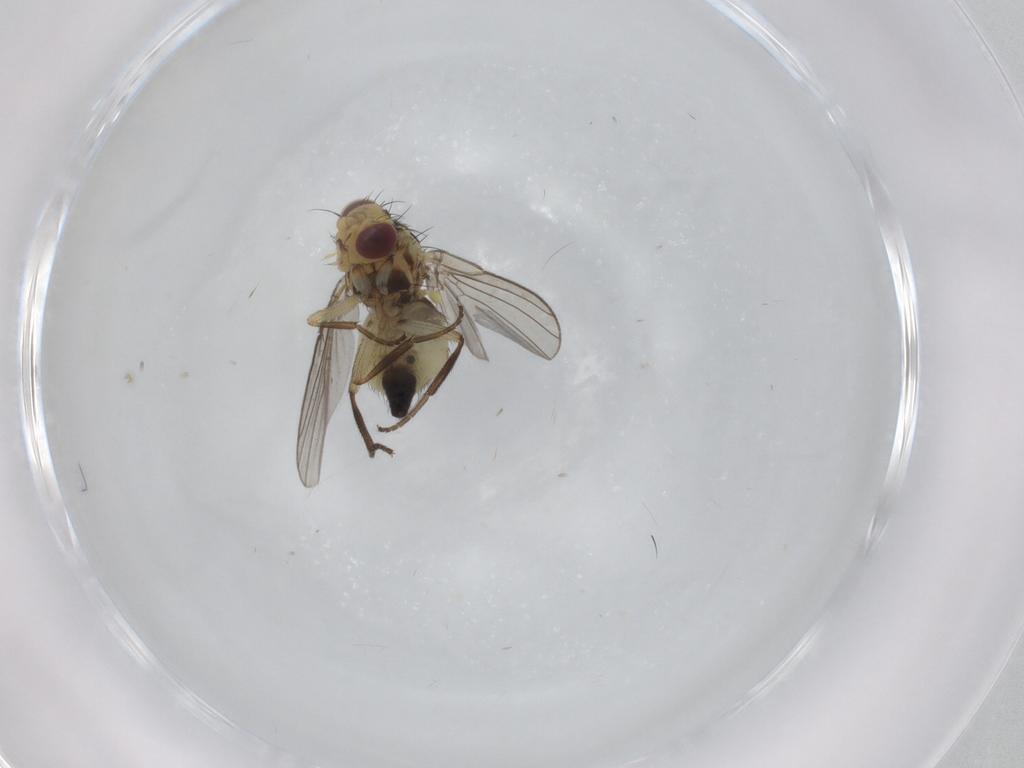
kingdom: Animalia
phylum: Arthropoda
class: Insecta
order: Diptera
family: Agromyzidae
